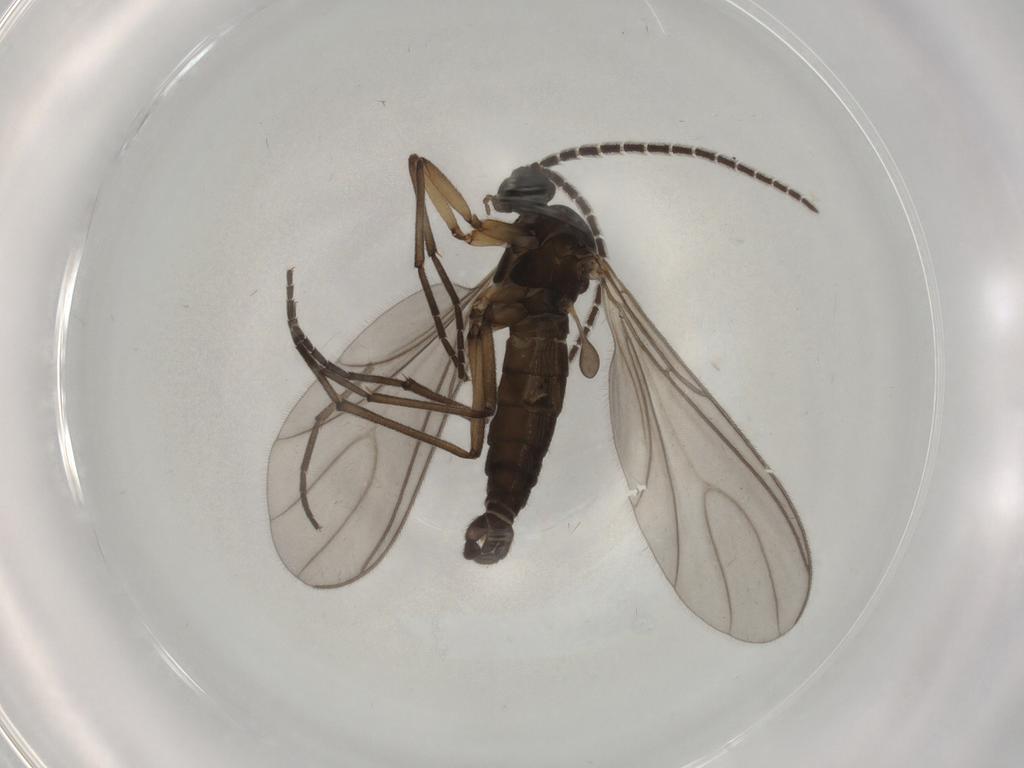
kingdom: Animalia
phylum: Arthropoda
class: Insecta
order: Diptera
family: Sciaridae
